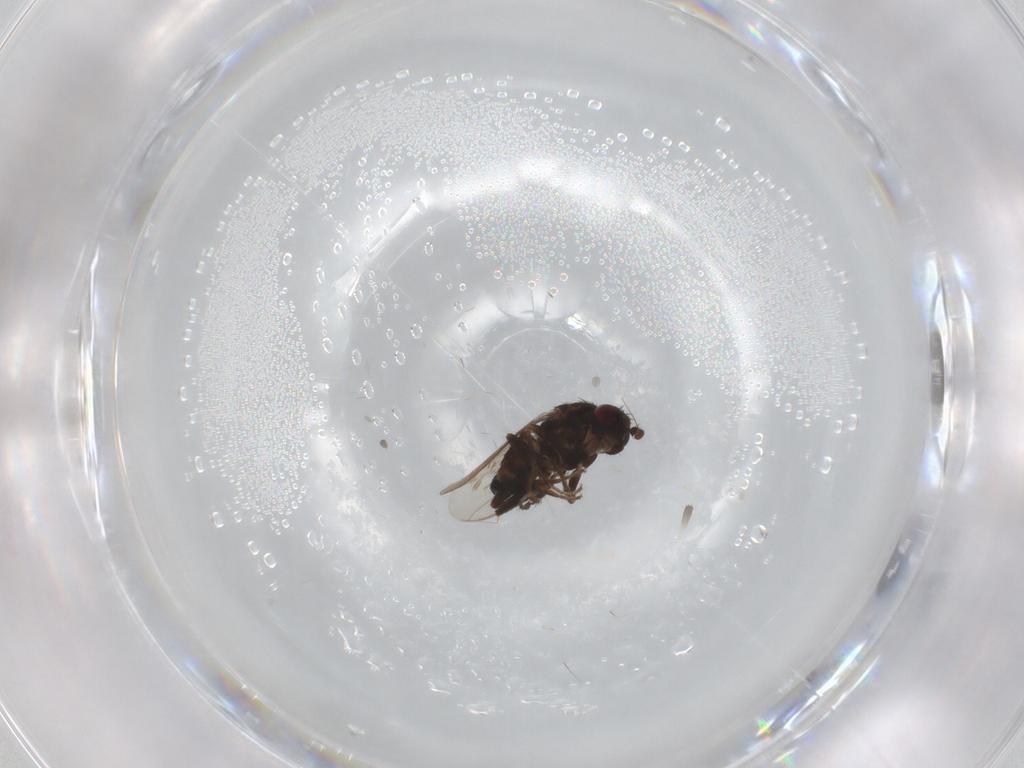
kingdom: Animalia
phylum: Arthropoda
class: Insecta
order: Diptera
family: Sphaeroceridae
